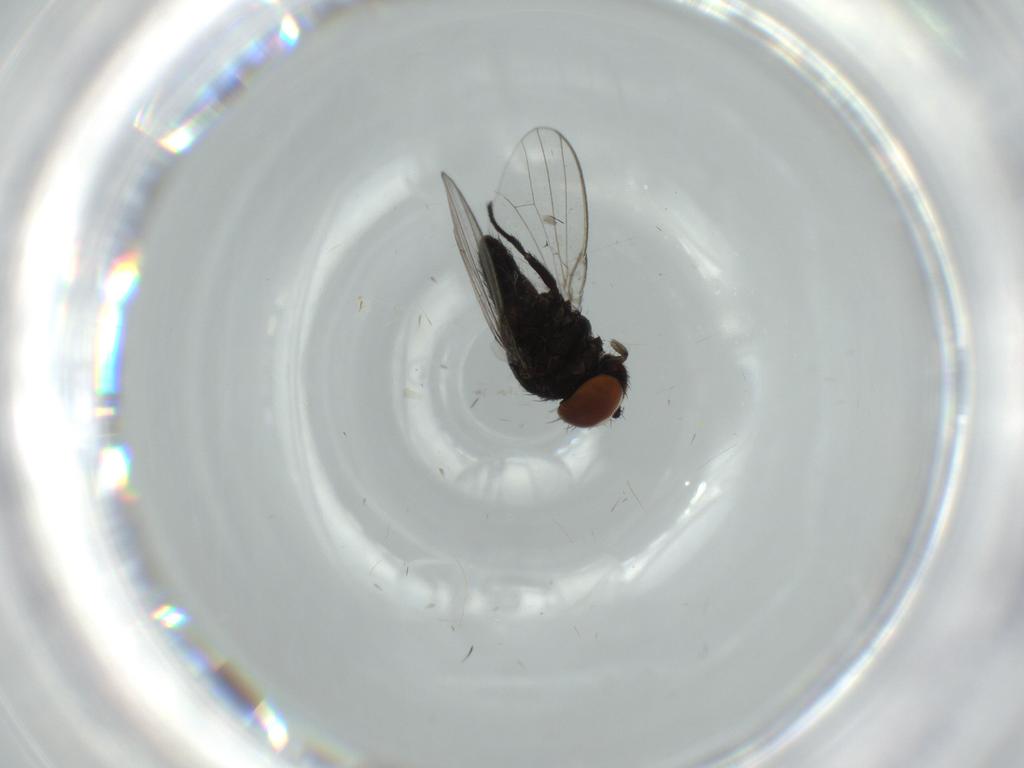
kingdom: Animalia
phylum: Arthropoda
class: Insecta
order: Diptera
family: Milichiidae
